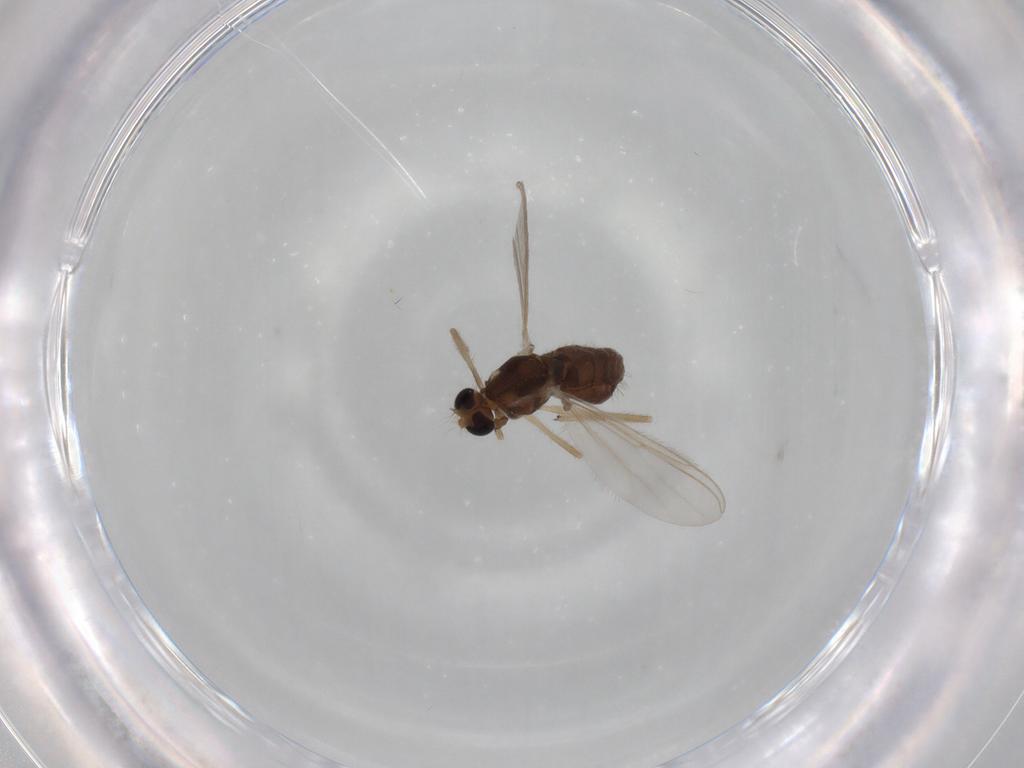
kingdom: Animalia
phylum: Arthropoda
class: Insecta
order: Diptera
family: Chironomidae
